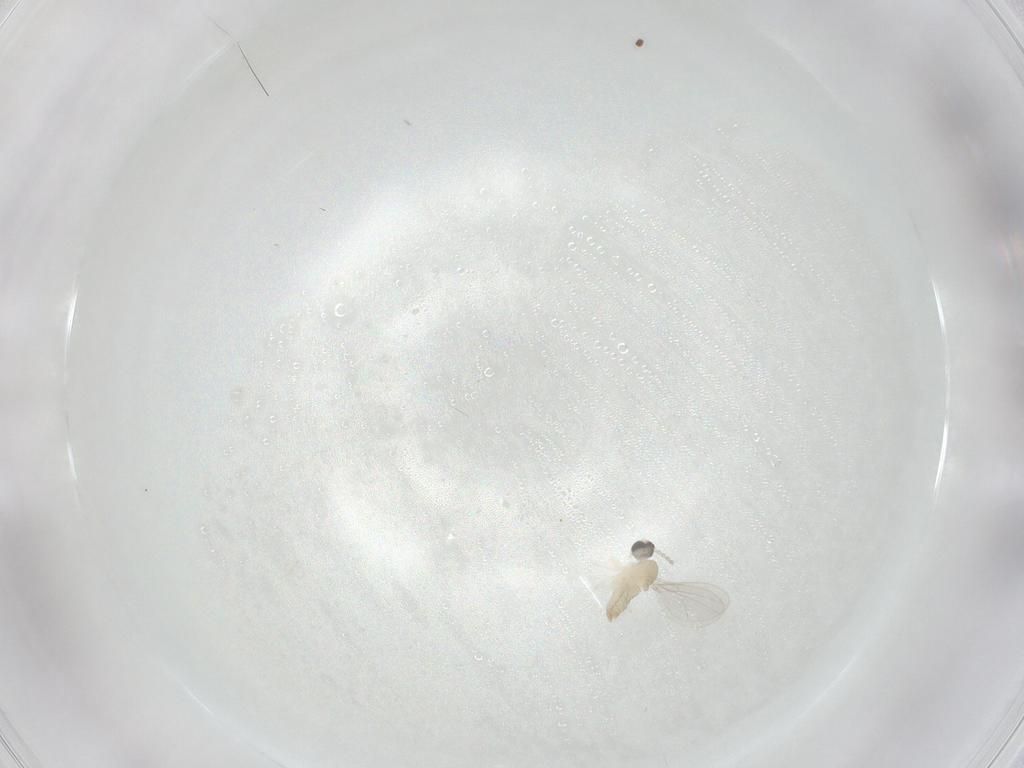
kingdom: Animalia
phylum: Arthropoda
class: Insecta
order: Diptera
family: Cecidomyiidae
